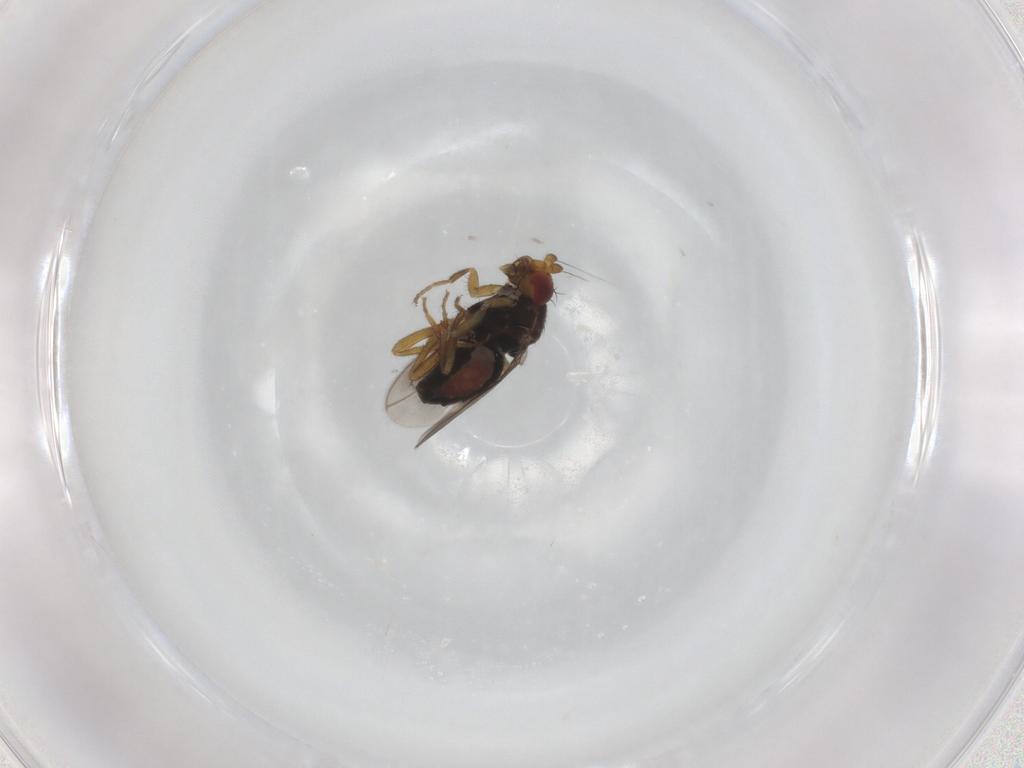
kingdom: Animalia
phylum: Arthropoda
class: Insecta
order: Diptera
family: Sphaeroceridae
